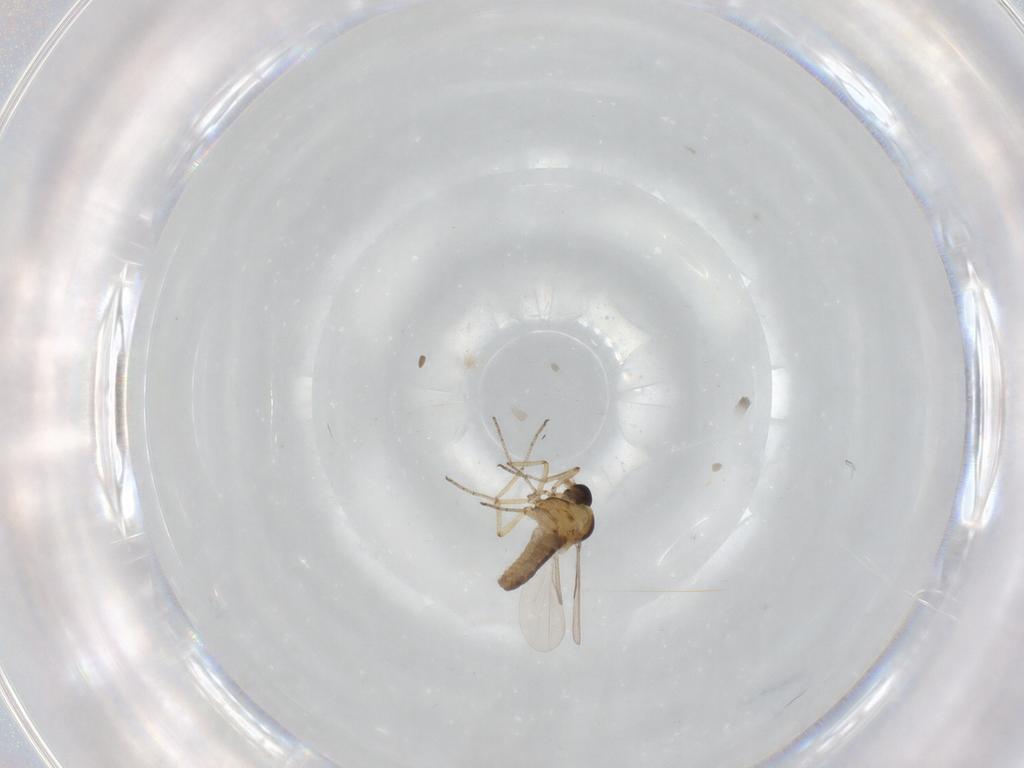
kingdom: Animalia
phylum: Arthropoda
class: Insecta
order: Diptera
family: Ceratopogonidae
